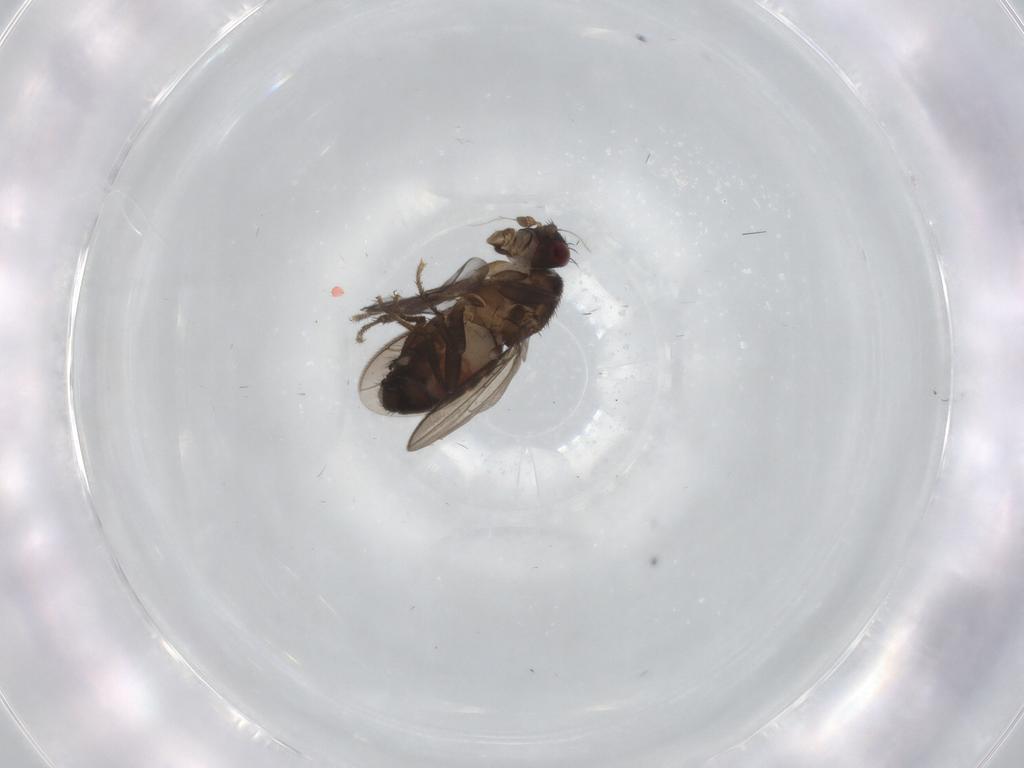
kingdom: Animalia
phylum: Arthropoda
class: Insecta
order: Diptera
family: Sphaeroceridae
